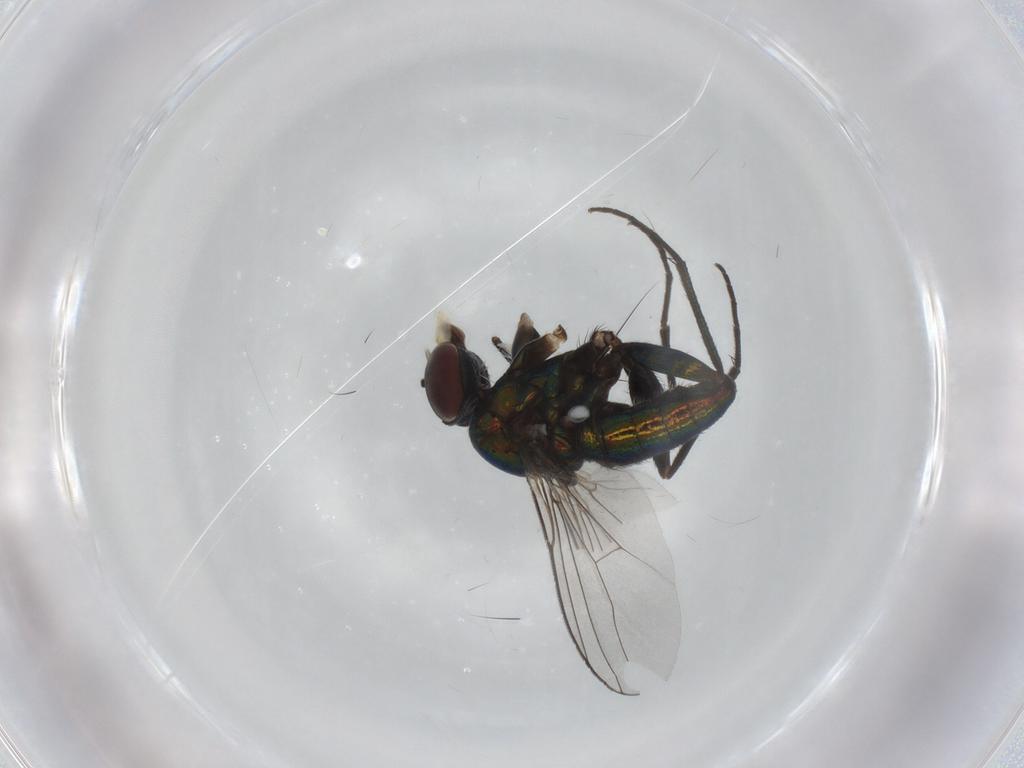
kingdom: Animalia
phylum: Arthropoda
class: Insecta
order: Diptera
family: Dolichopodidae
